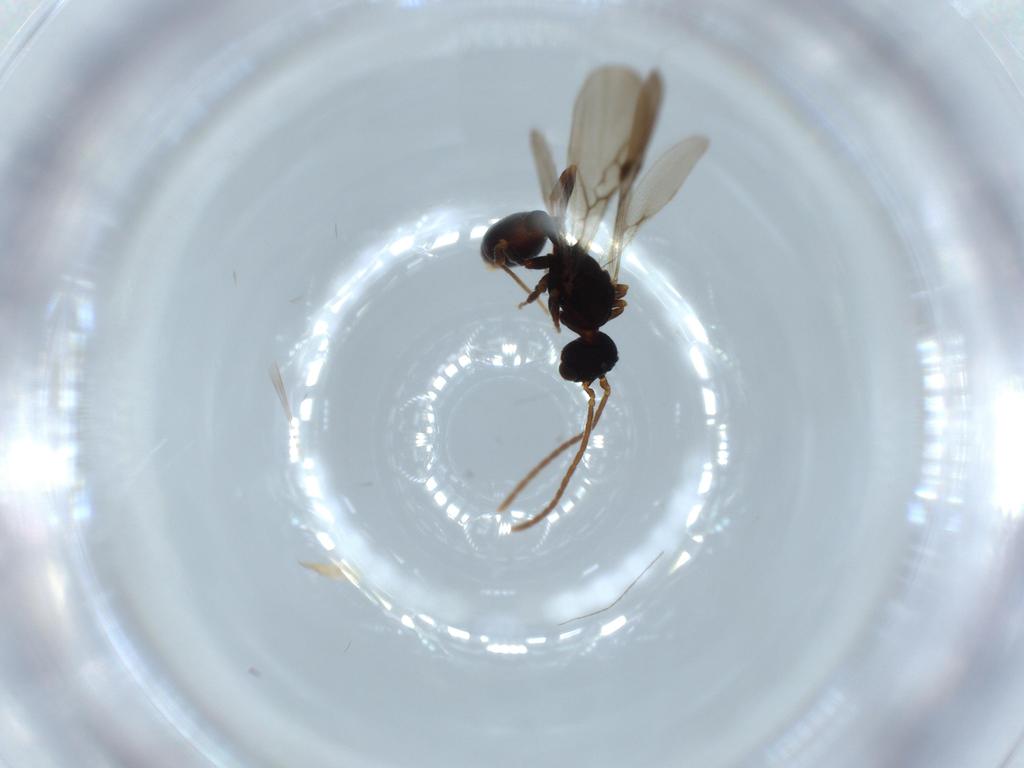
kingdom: Animalia
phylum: Arthropoda
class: Insecta
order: Hymenoptera
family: Formicidae
